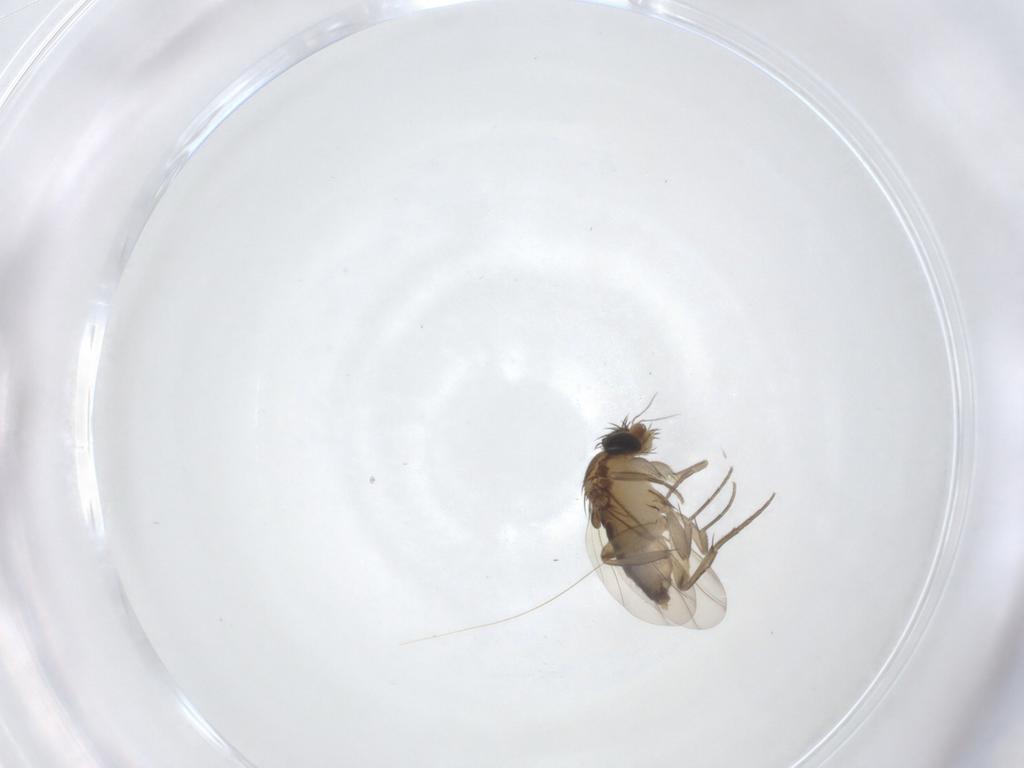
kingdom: Animalia
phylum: Arthropoda
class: Insecta
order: Diptera
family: Phoridae
